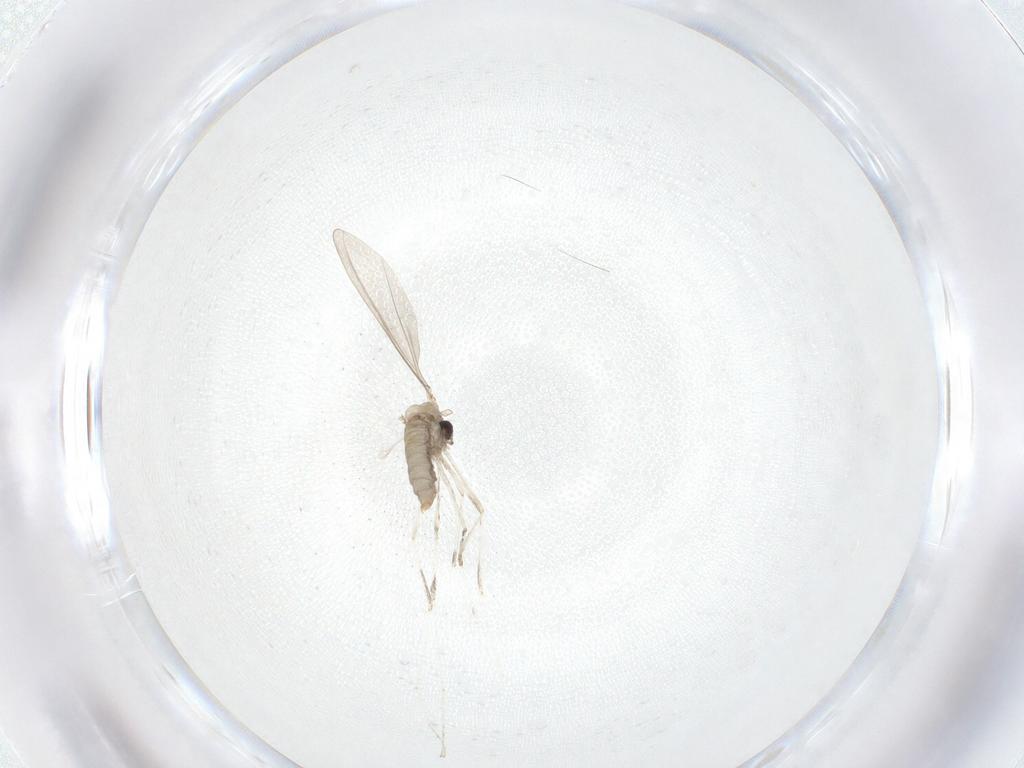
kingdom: Animalia
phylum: Arthropoda
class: Insecta
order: Diptera
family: Cecidomyiidae
